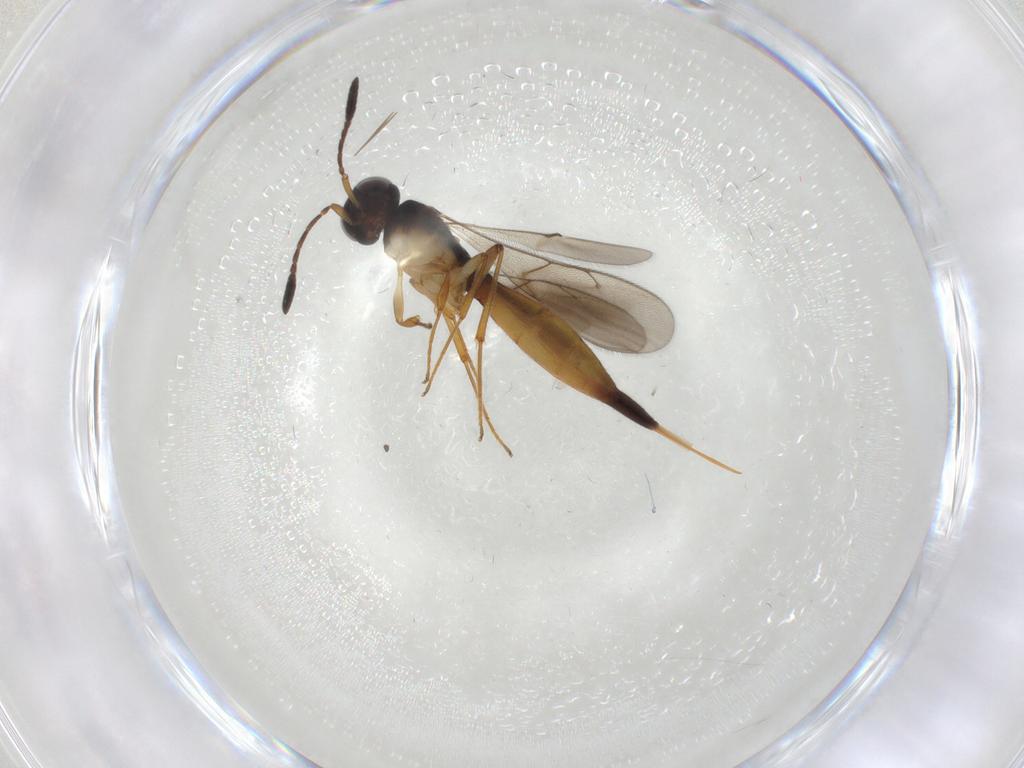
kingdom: Animalia
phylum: Arthropoda
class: Insecta
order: Hymenoptera
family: Scelionidae
